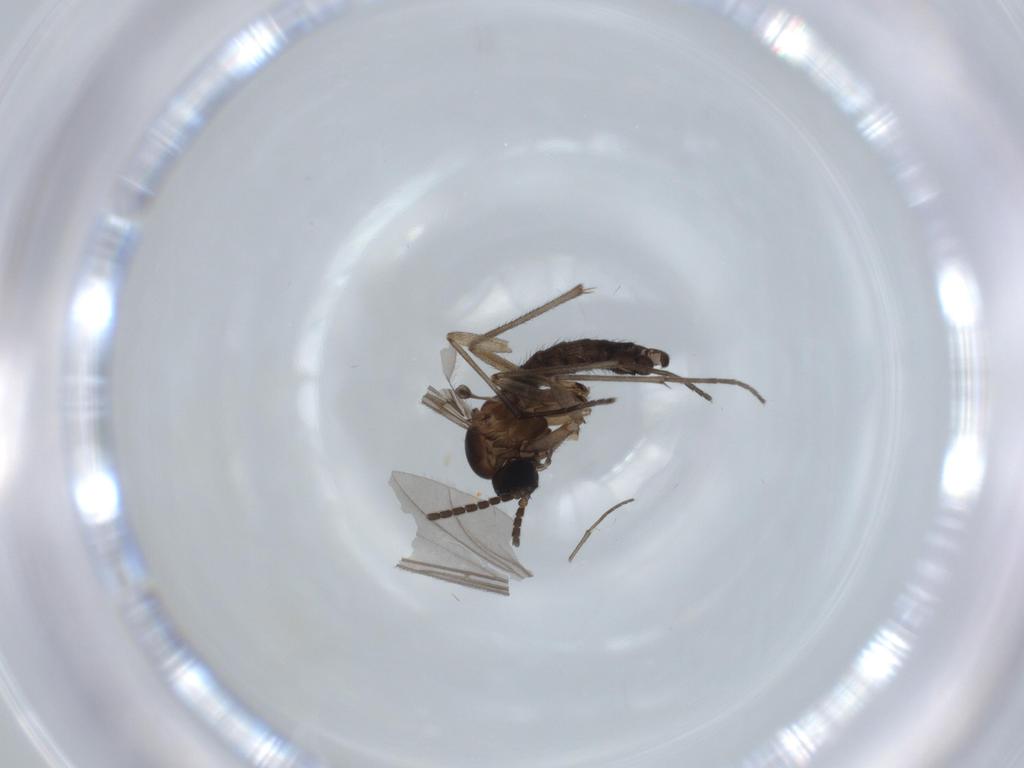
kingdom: Animalia
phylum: Arthropoda
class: Insecta
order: Diptera
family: Sciaridae
